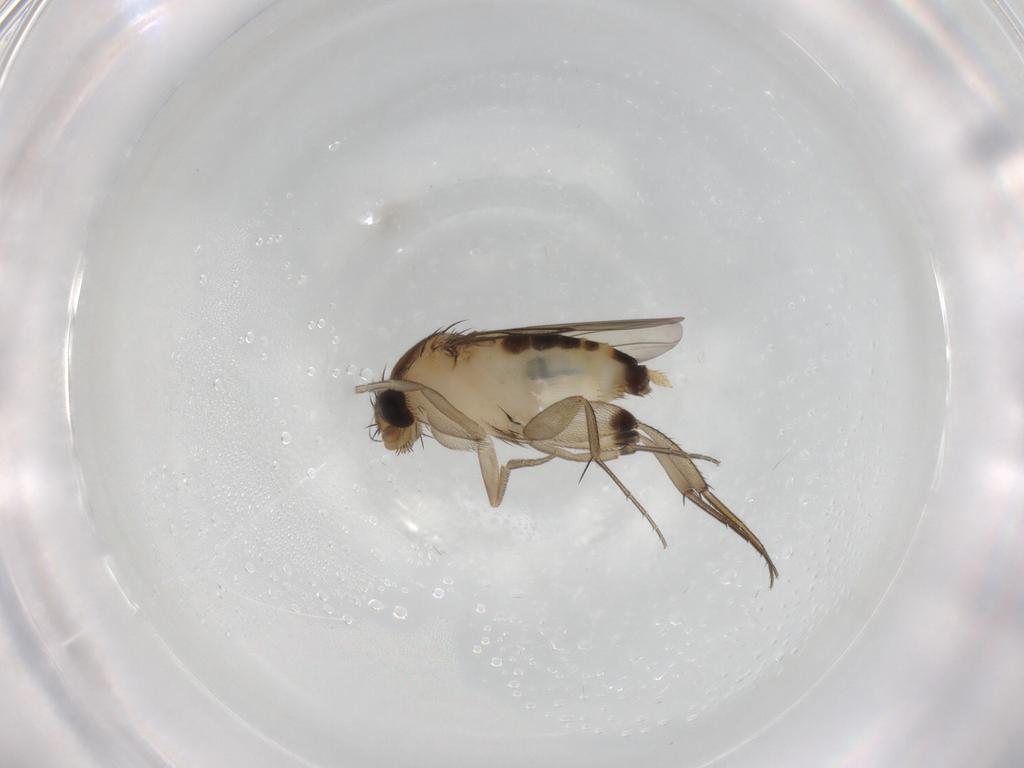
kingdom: Animalia
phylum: Arthropoda
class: Insecta
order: Diptera
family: Phoridae
